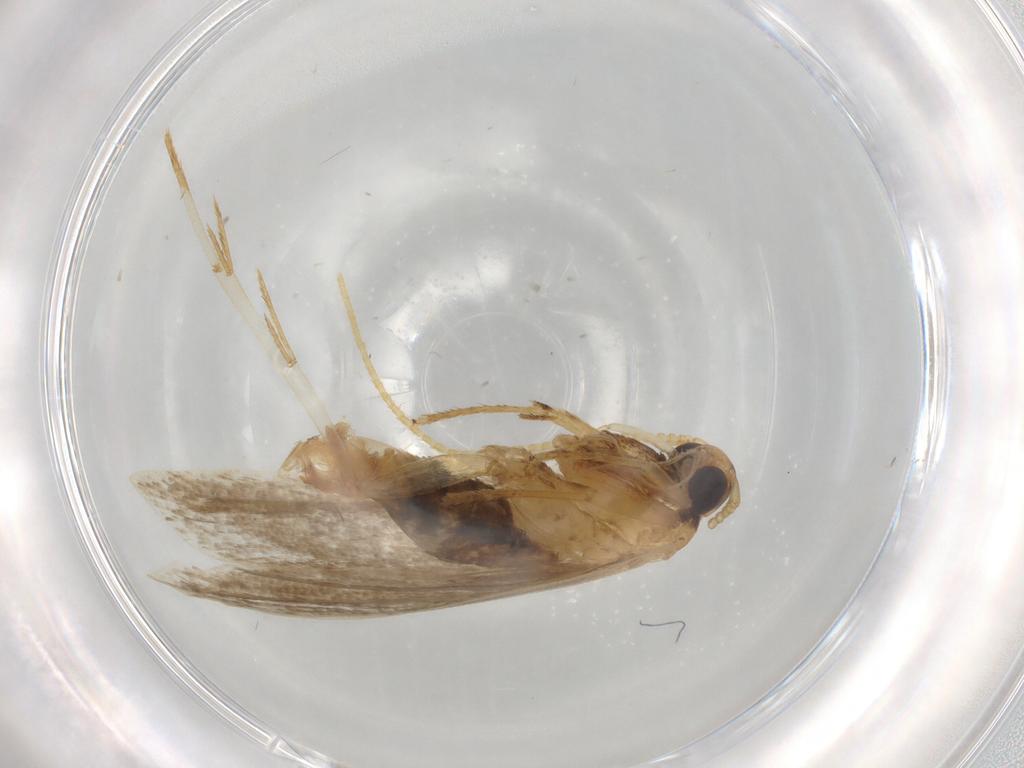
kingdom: Animalia
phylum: Arthropoda
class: Insecta
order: Lepidoptera
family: Lecithoceridae
